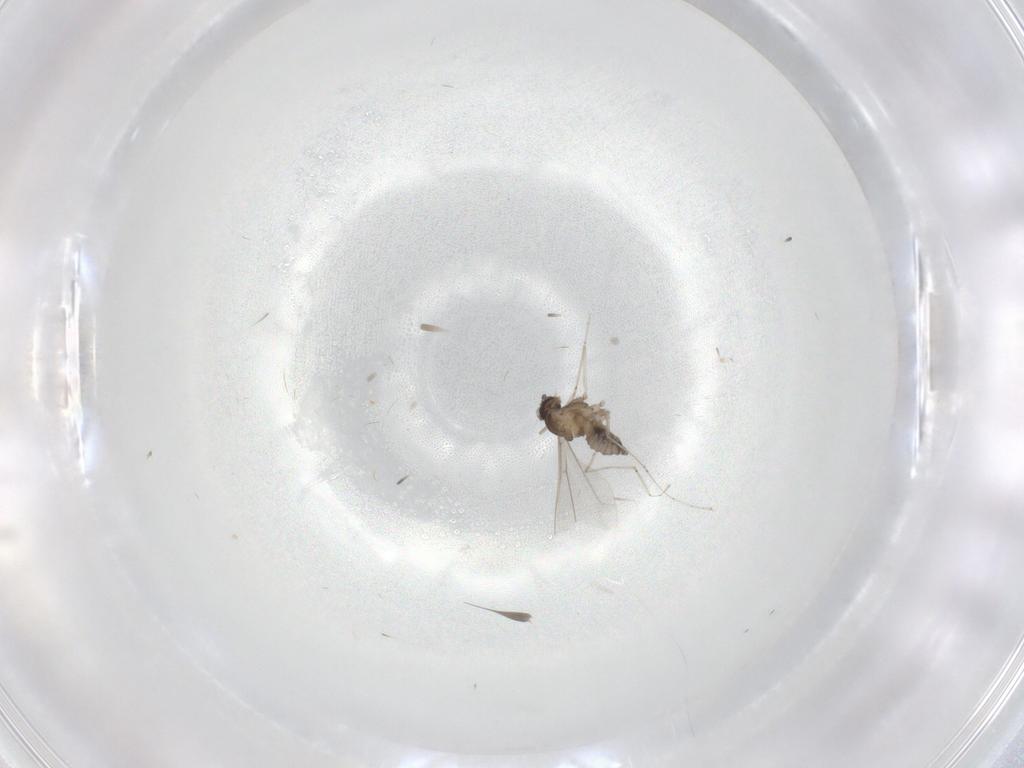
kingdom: Animalia
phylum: Arthropoda
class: Insecta
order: Diptera
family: Cecidomyiidae
